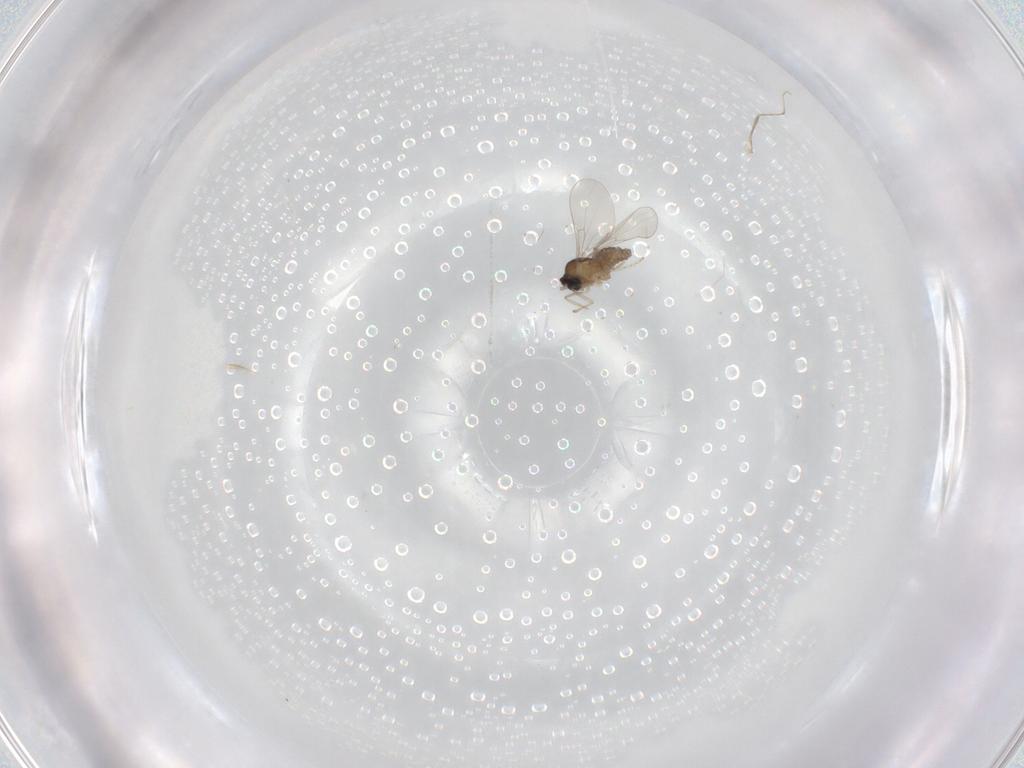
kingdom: Animalia
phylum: Arthropoda
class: Insecta
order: Diptera
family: Cecidomyiidae
